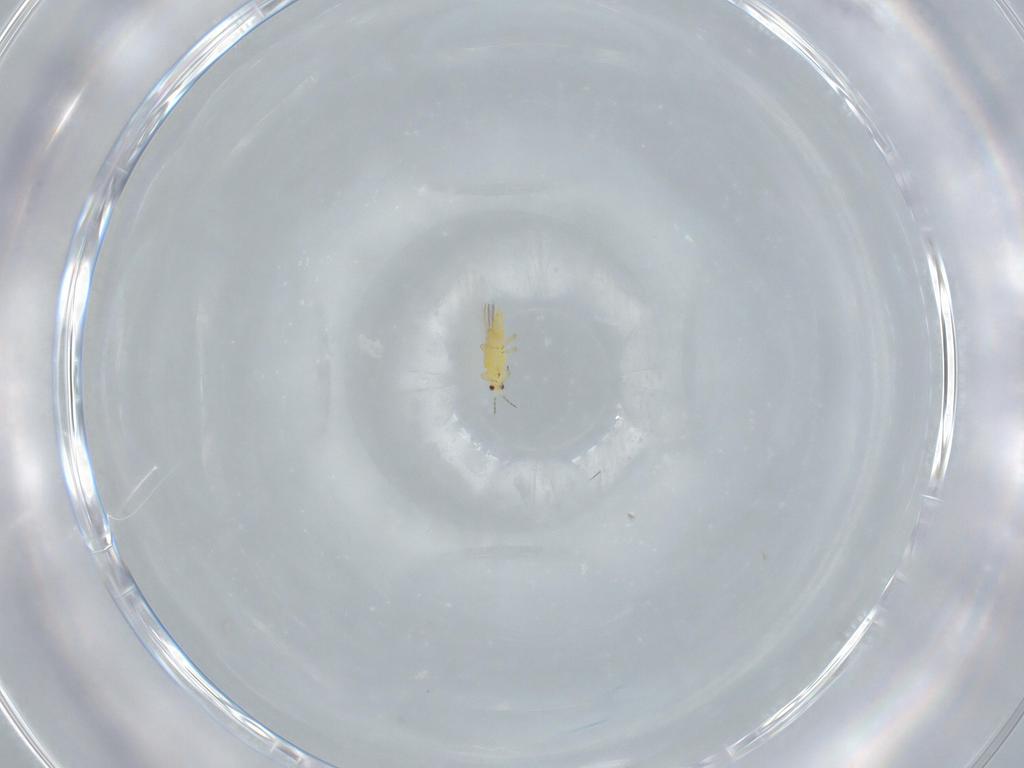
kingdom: Animalia
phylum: Arthropoda
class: Insecta
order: Thysanoptera
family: Thripidae
